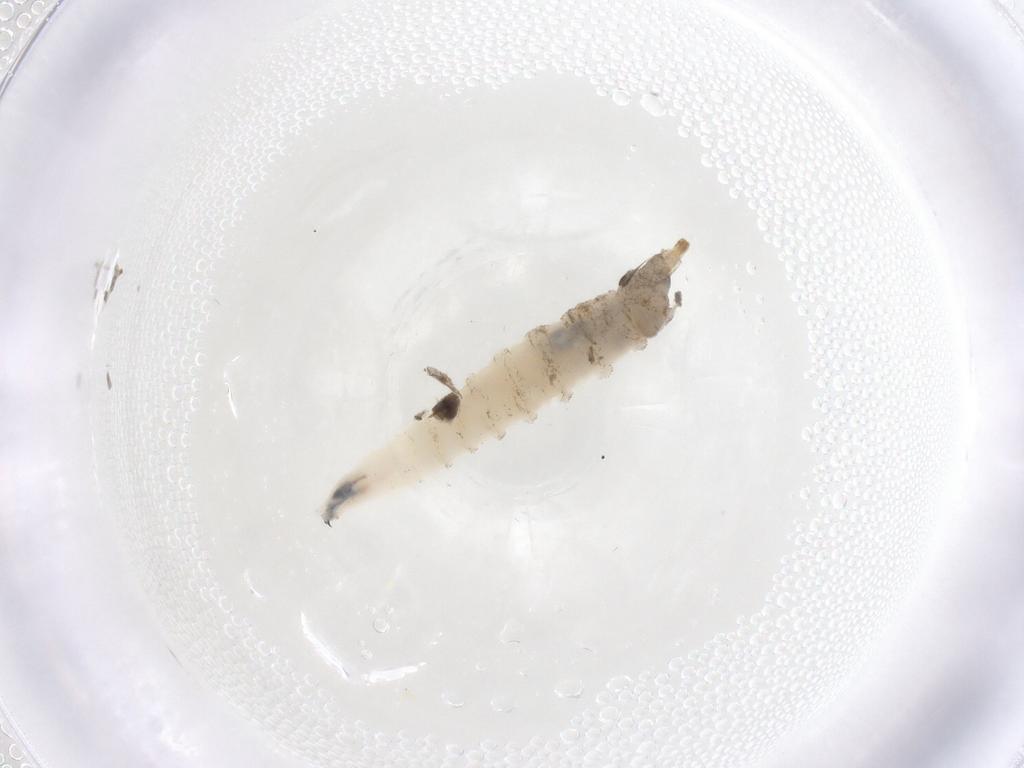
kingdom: Animalia
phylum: Arthropoda
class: Insecta
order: Diptera
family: Drosophilidae
